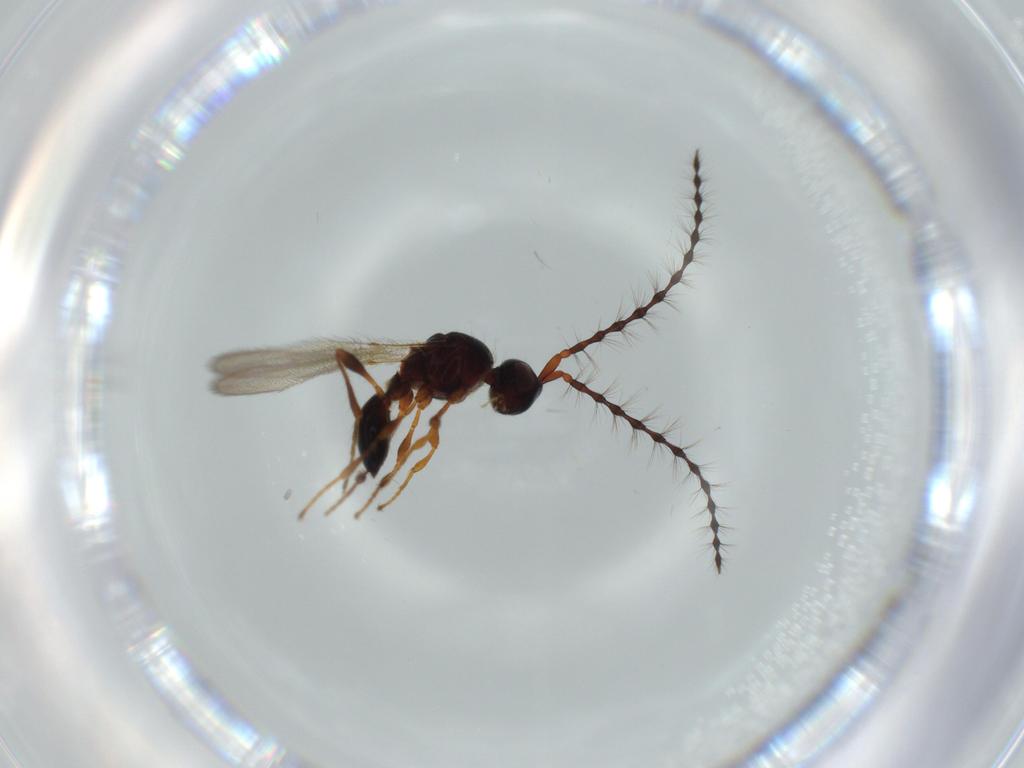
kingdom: Animalia
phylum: Arthropoda
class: Insecta
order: Hymenoptera
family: Diapriidae
